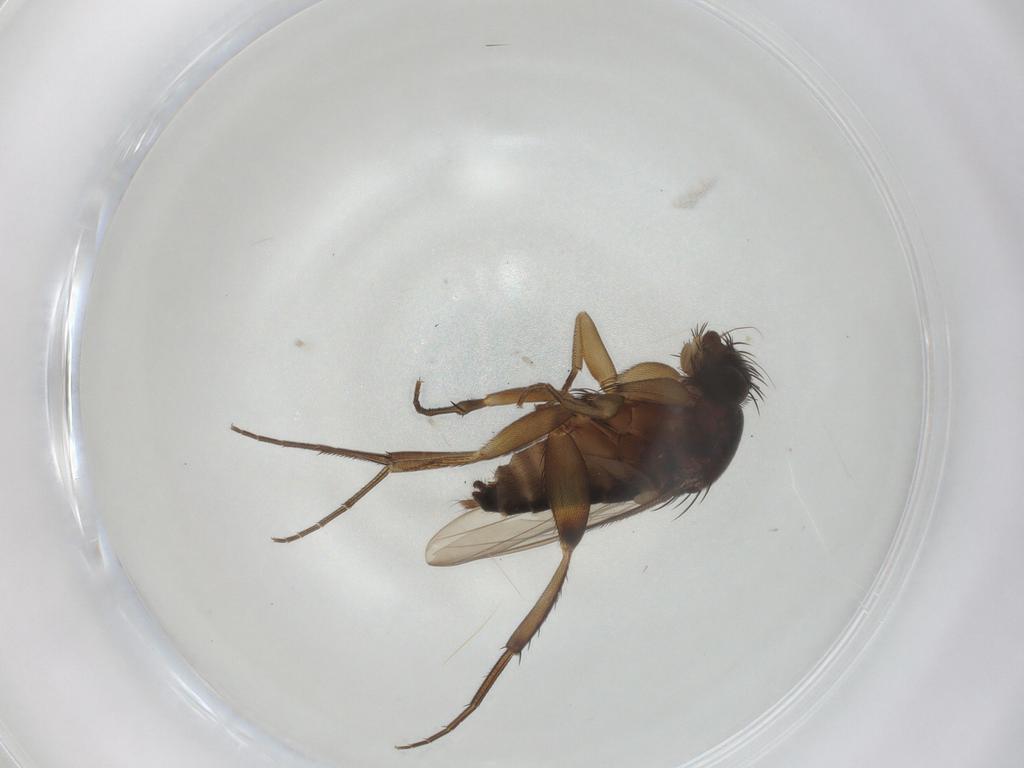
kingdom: Animalia
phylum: Arthropoda
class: Insecta
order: Diptera
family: Phoridae
